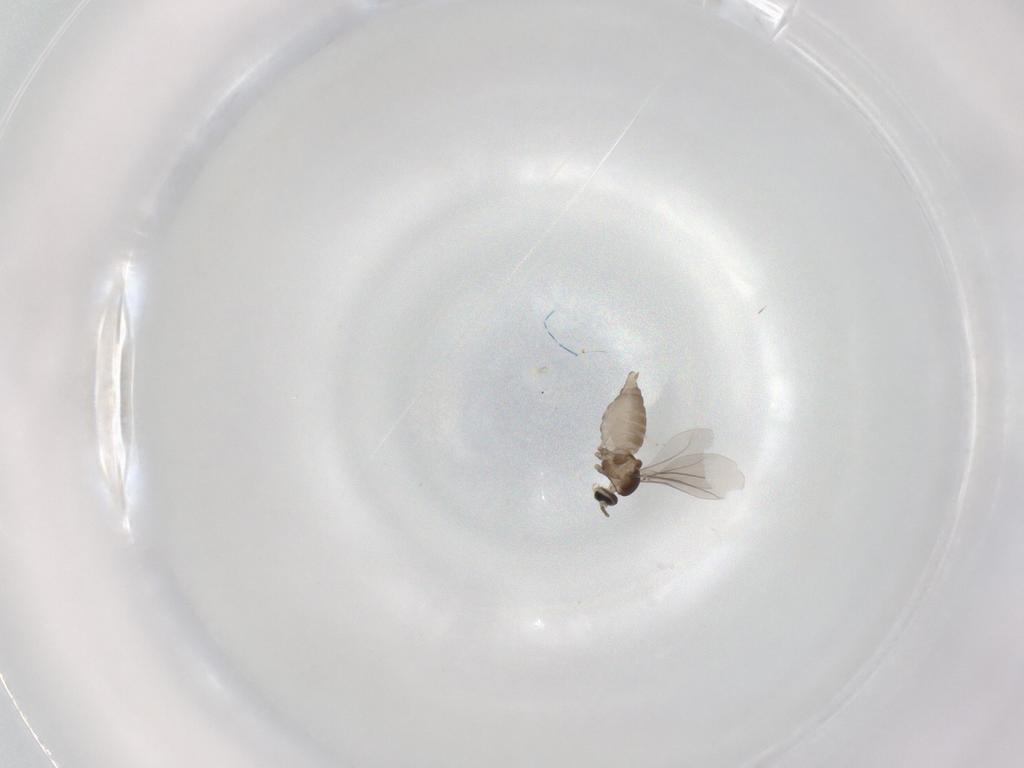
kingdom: Animalia
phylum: Arthropoda
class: Insecta
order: Diptera
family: Cecidomyiidae
